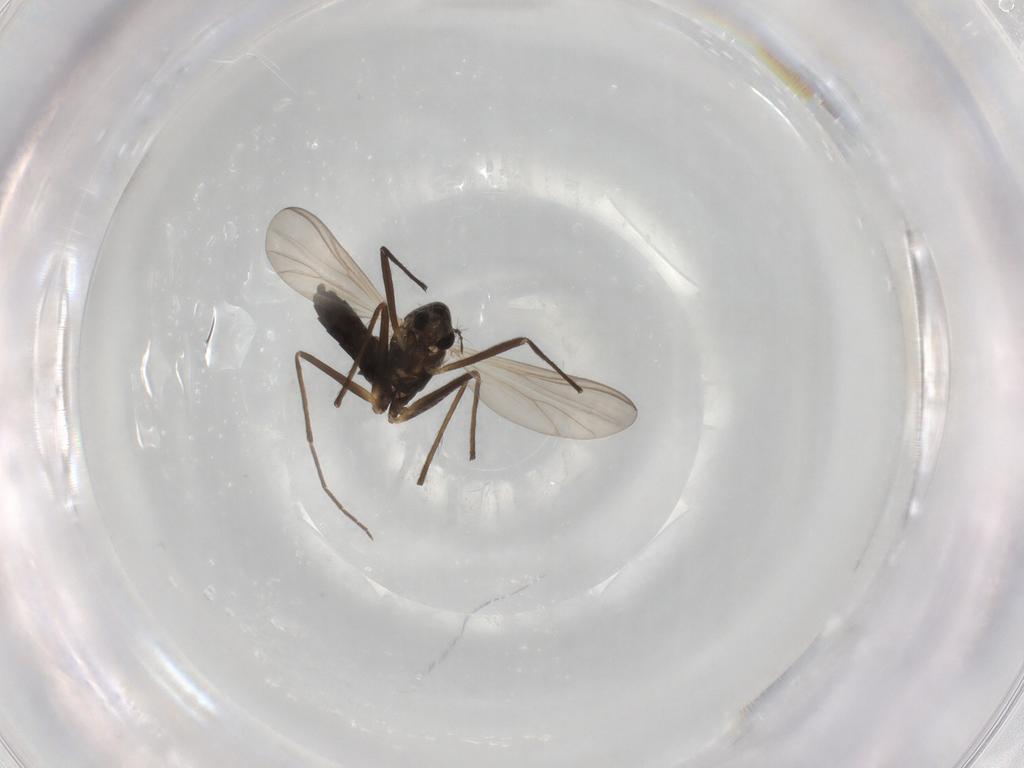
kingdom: Animalia
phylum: Arthropoda
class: Insecta
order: Diptera
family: Chironomidae
